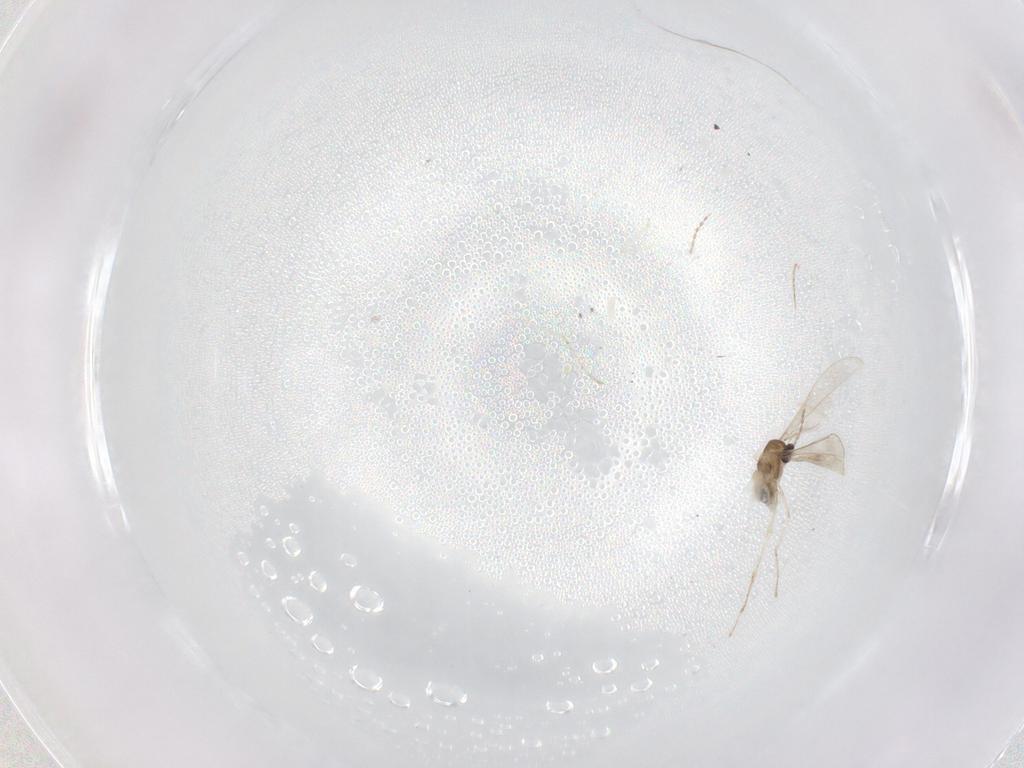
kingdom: Animalia
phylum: Arthropoda
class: Insecta
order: Diptera
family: Cecidomyiidae
